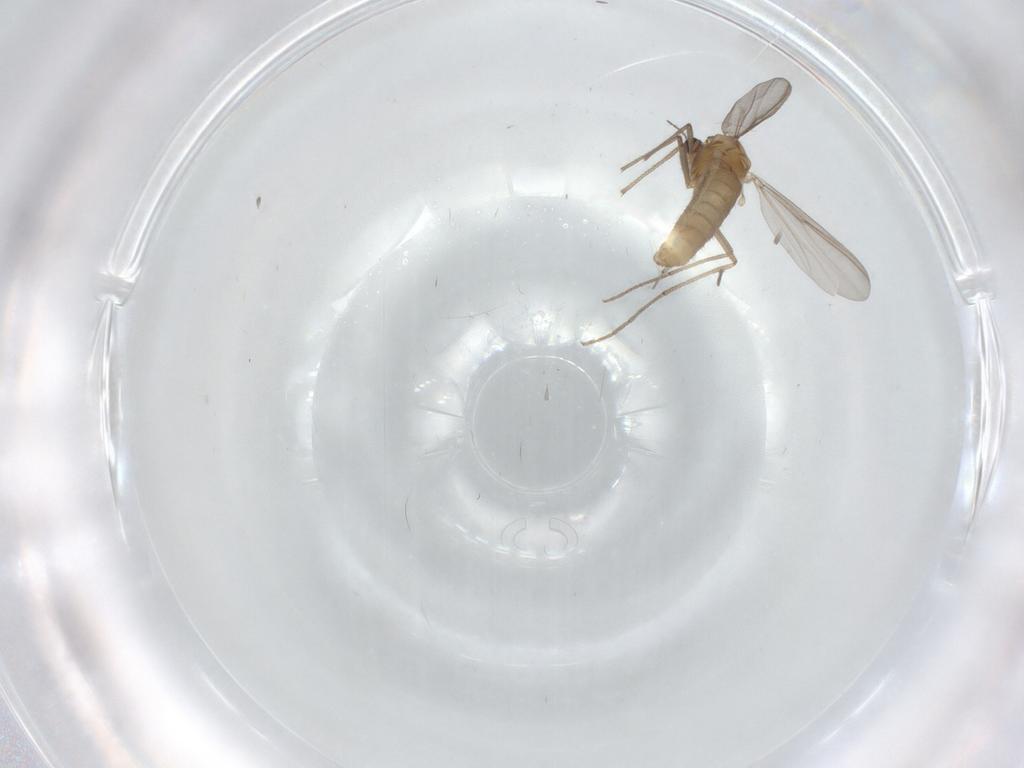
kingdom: Animalia
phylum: Arthropoda
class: Insecta
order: Diptera
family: Chironomidae
